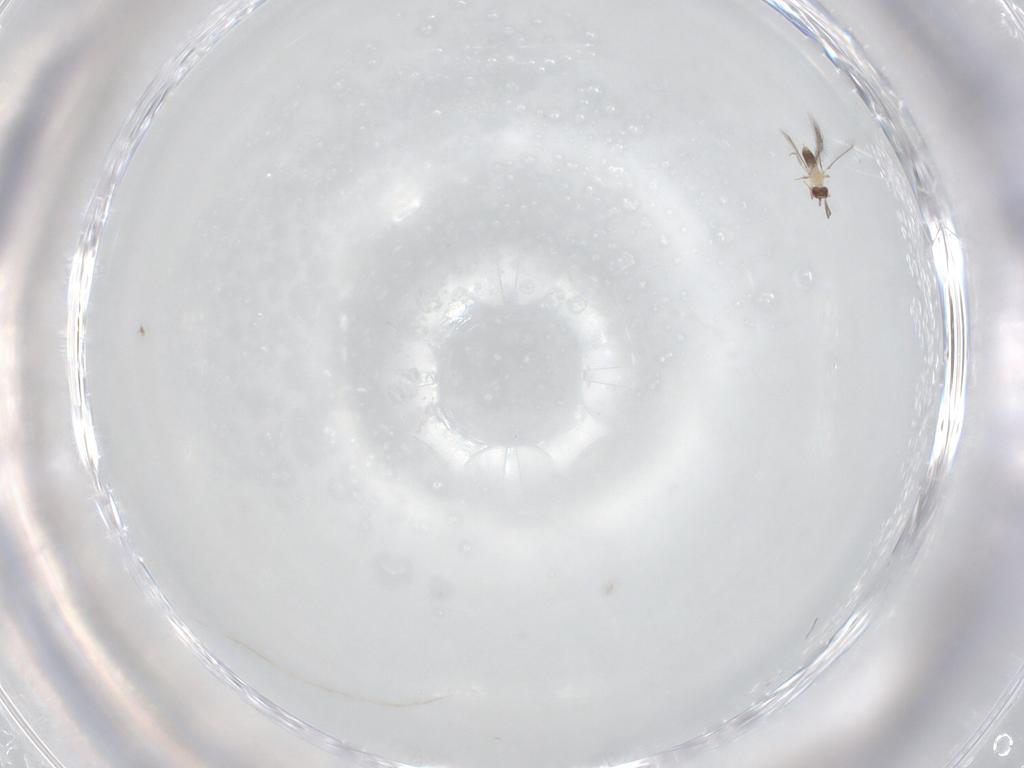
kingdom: Animalia
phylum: Arthropoda
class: Insecta
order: Hymenoptera
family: Mymaridae
